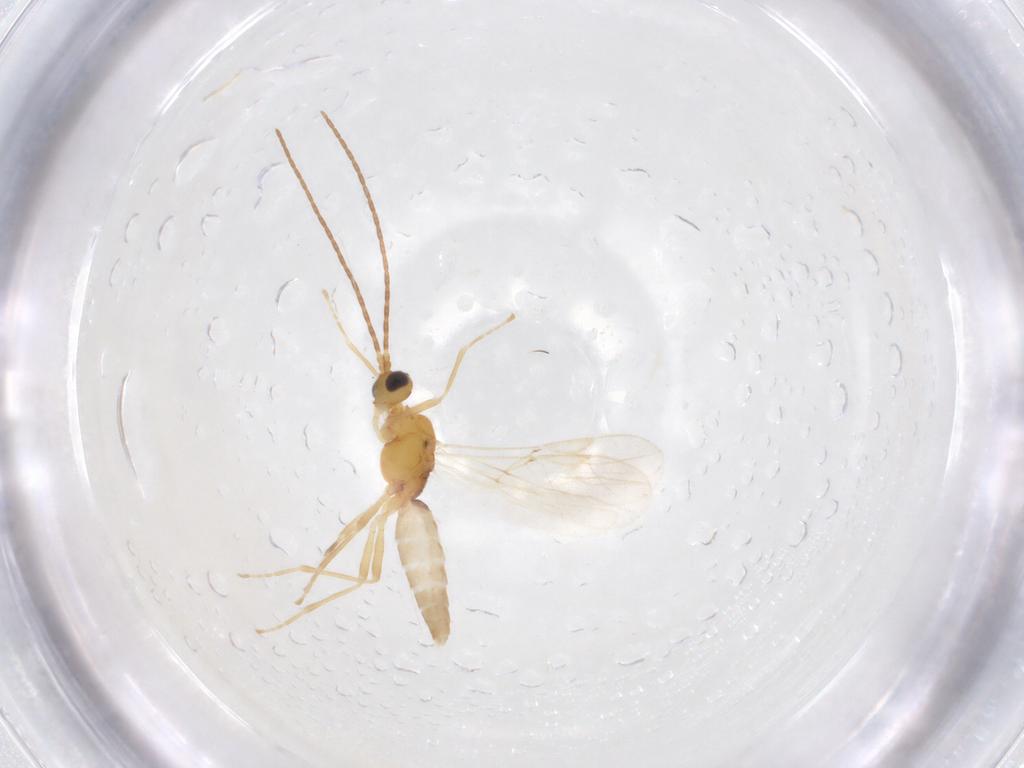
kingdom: Animalia
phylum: Arthropoda
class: Insecta
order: Hymenoptera
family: Braconidae
